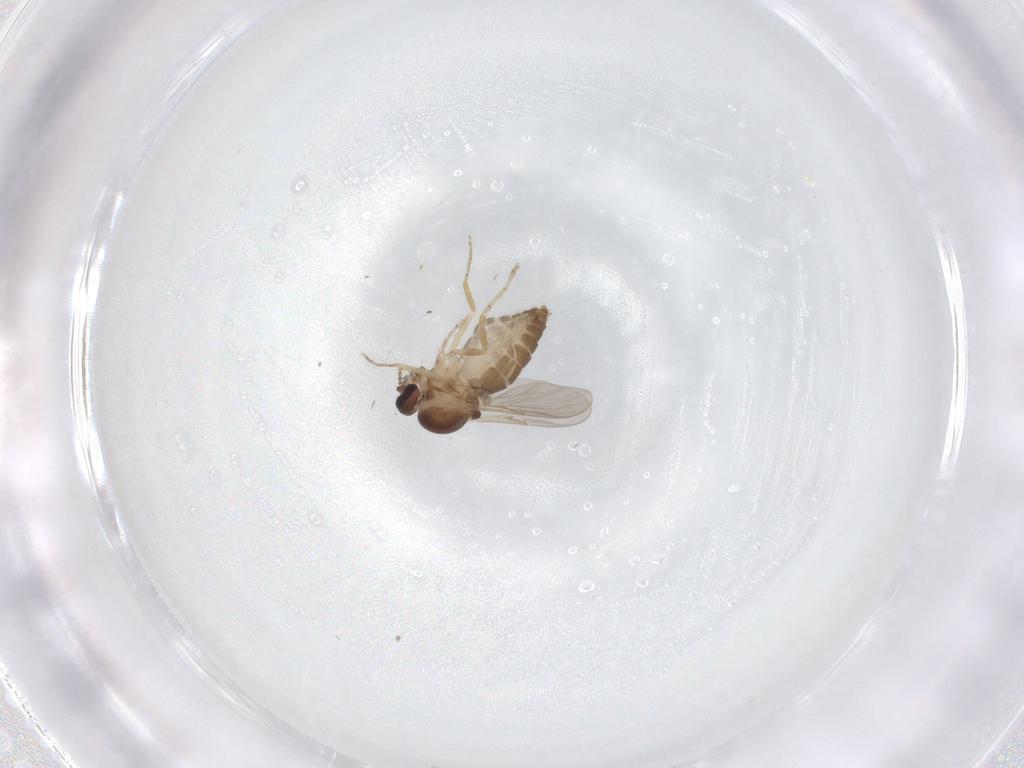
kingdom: Animalia
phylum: Arthropoda
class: Insecta
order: Diptera
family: Ceratopogonidae
